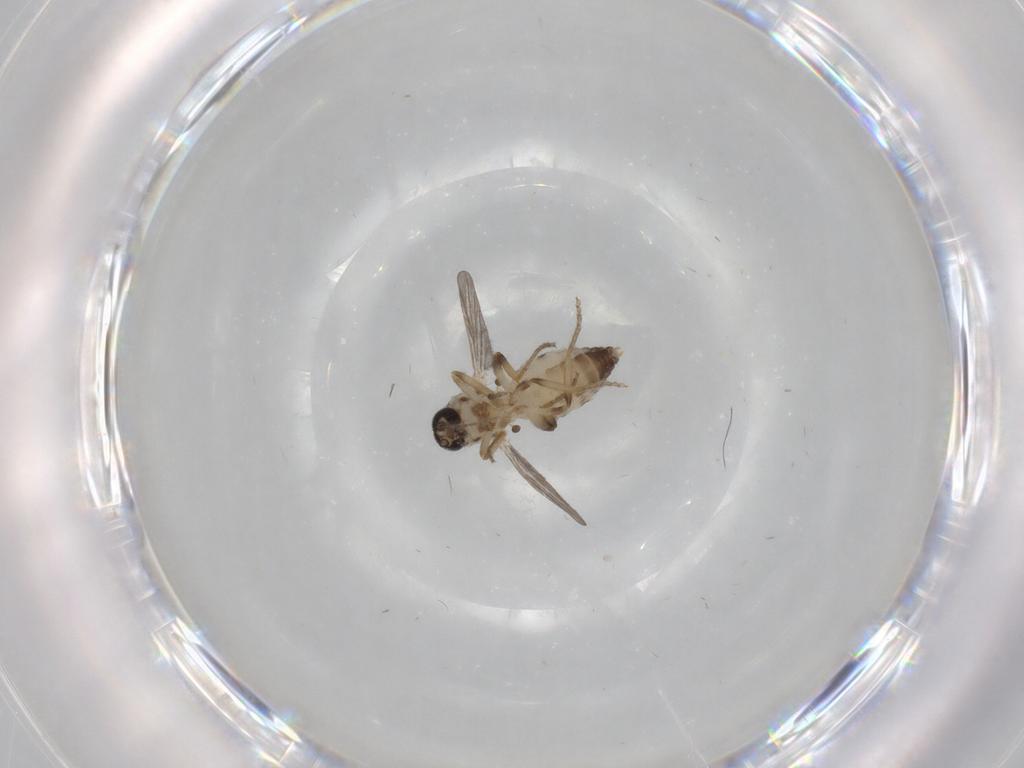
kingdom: Animalia
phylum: Arthropoda
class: Insecta
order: Diptera
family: Ceratopogonidae
